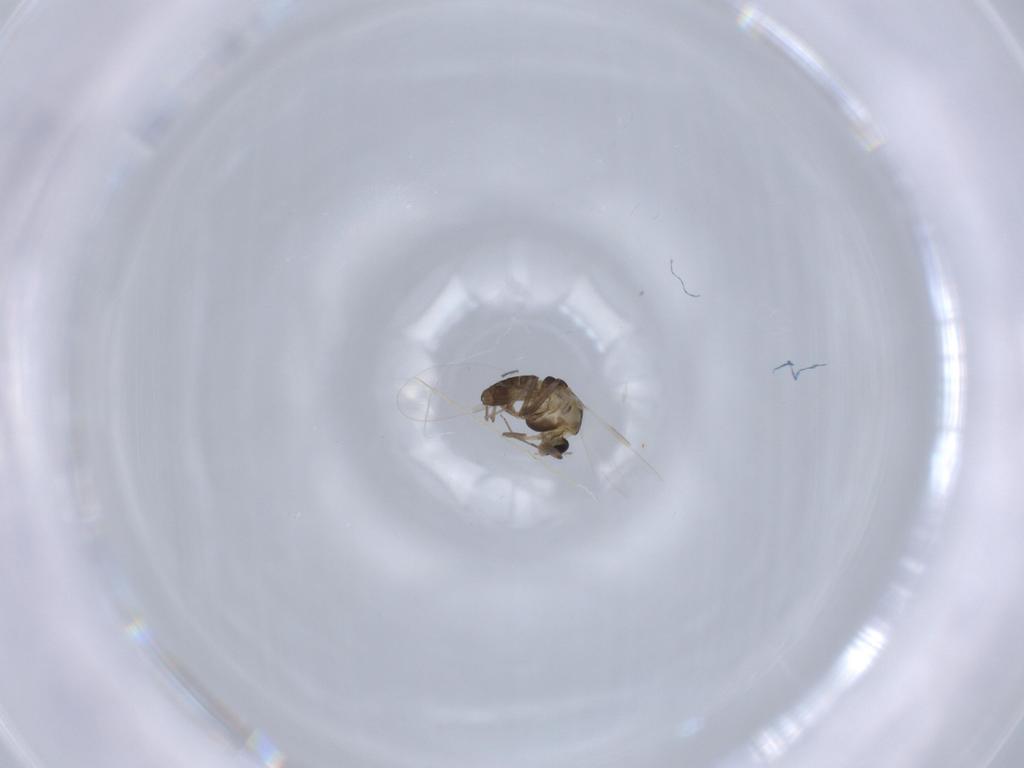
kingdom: Animalia
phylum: Arthropoda
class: Insecta
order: Diptera
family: Chironomidae
